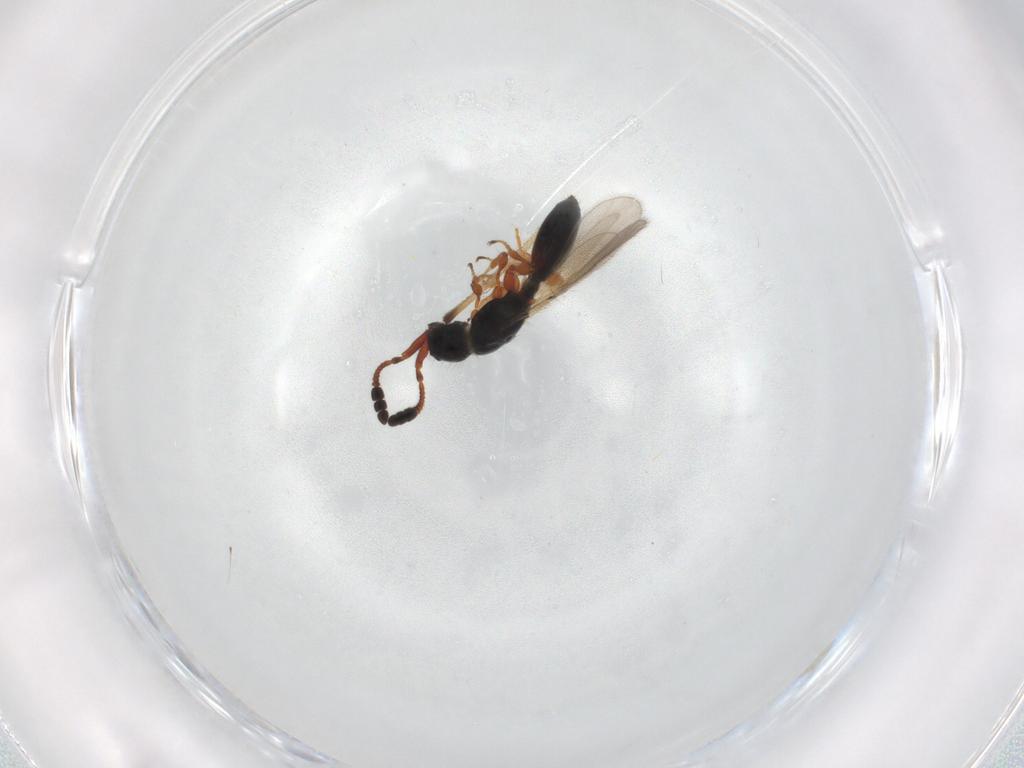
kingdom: Animalia
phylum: Arthropoda
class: Insecta
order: Hymenoptera
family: Diapriidae
